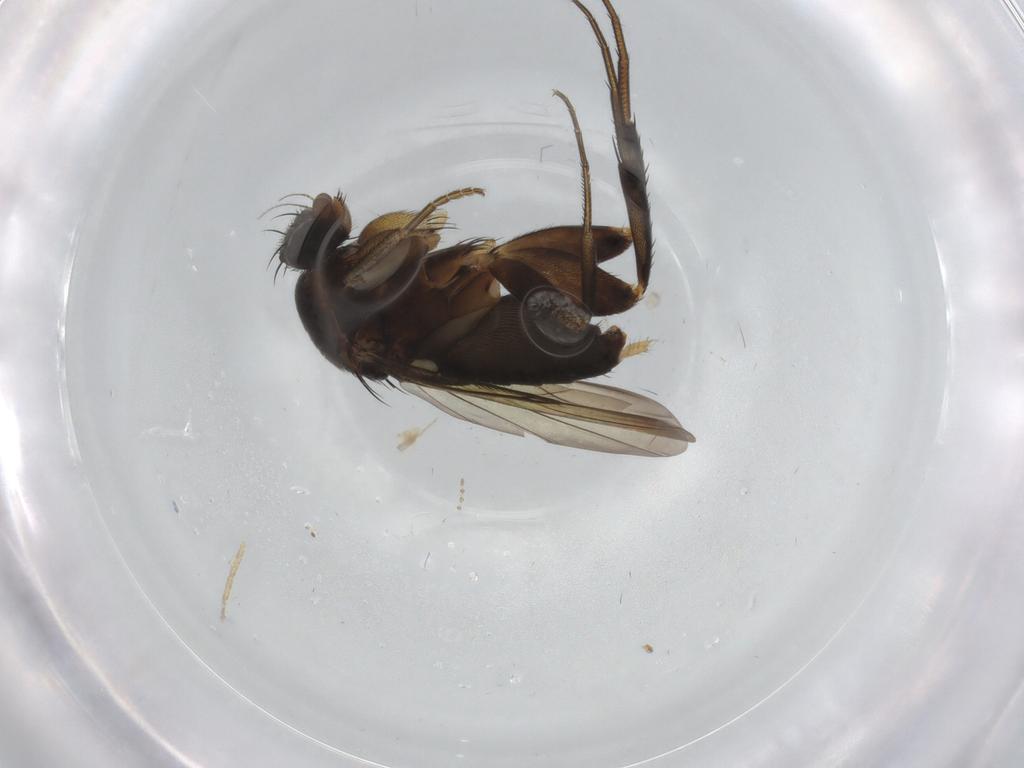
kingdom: Animalia
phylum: Arthropoda
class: Insecta
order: Diptera
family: Phoridae
